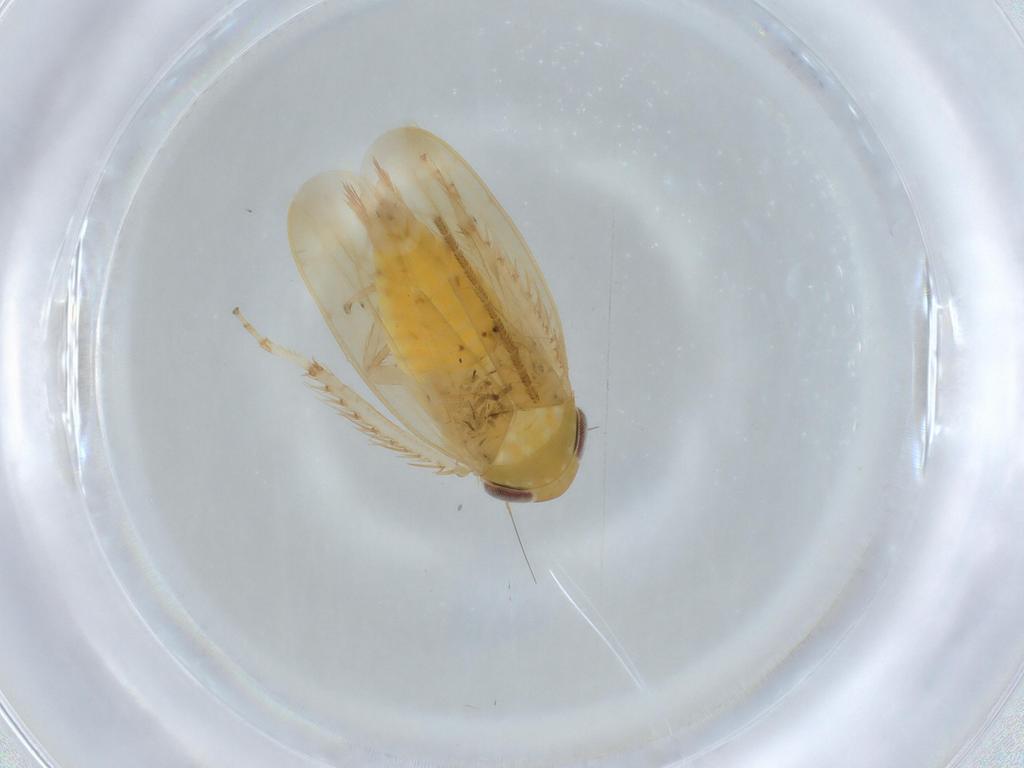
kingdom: Animalia
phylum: Arthropoda
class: Insecta
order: Hemiptera
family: Cicadellidae
